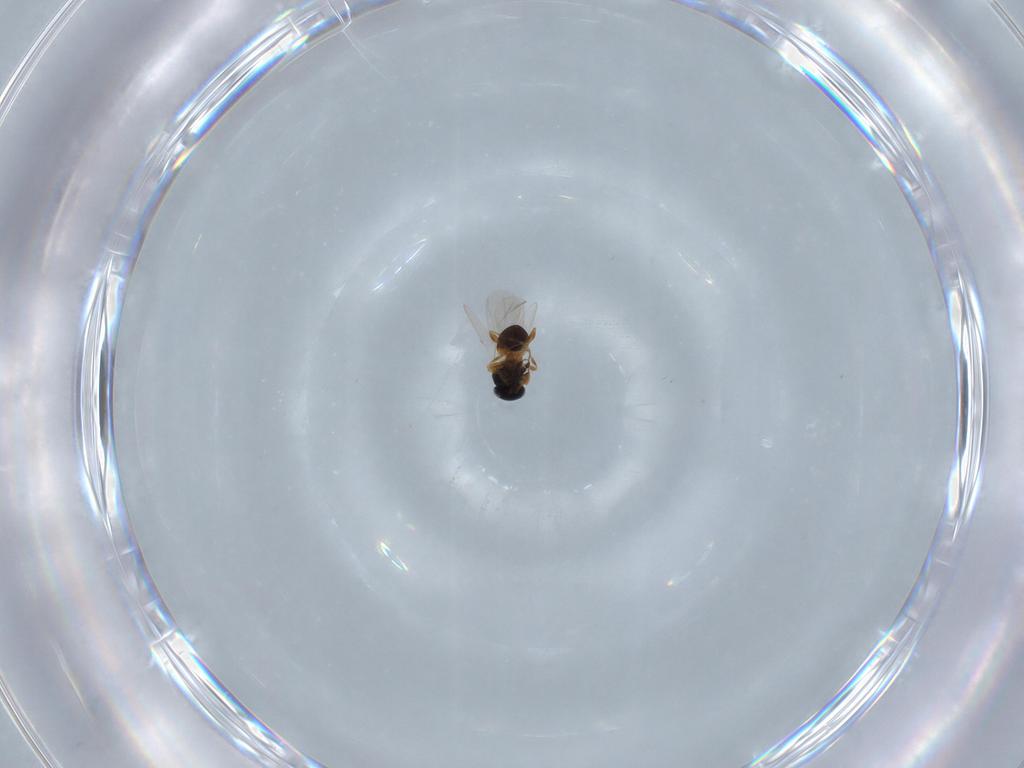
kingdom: Animalia
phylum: Arthropoda
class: Insecta
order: Hymenoptera
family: Platygastridae
